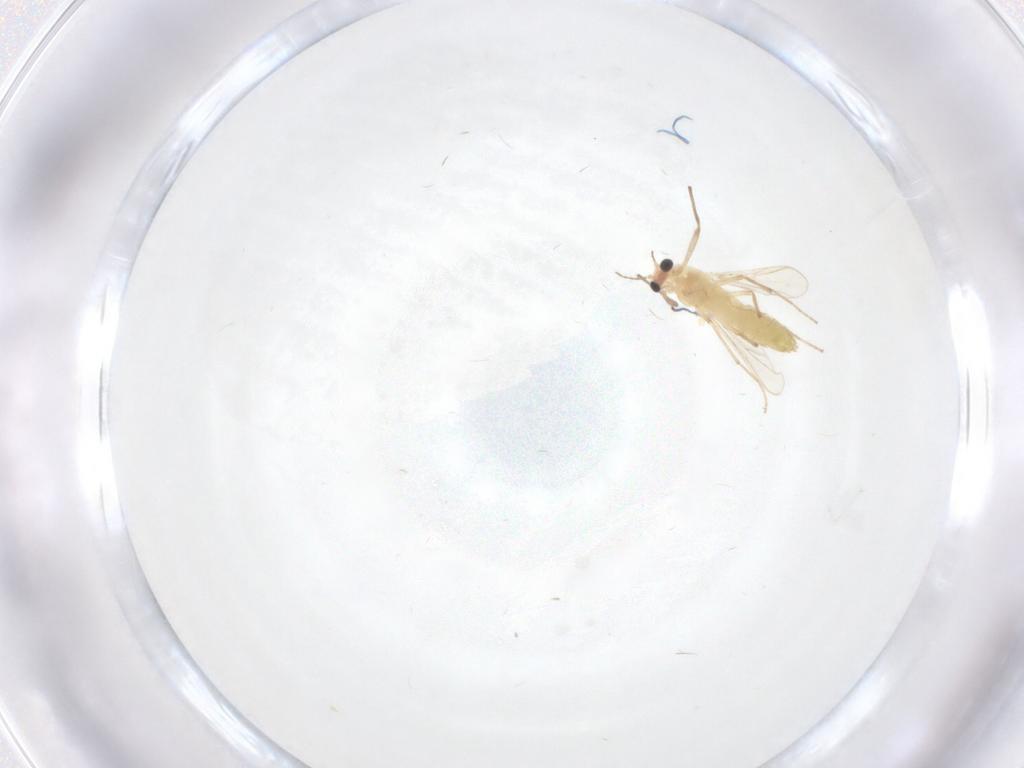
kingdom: Animalia
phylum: Arthropoda
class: Insecta
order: Diptera
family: Chironomidae
